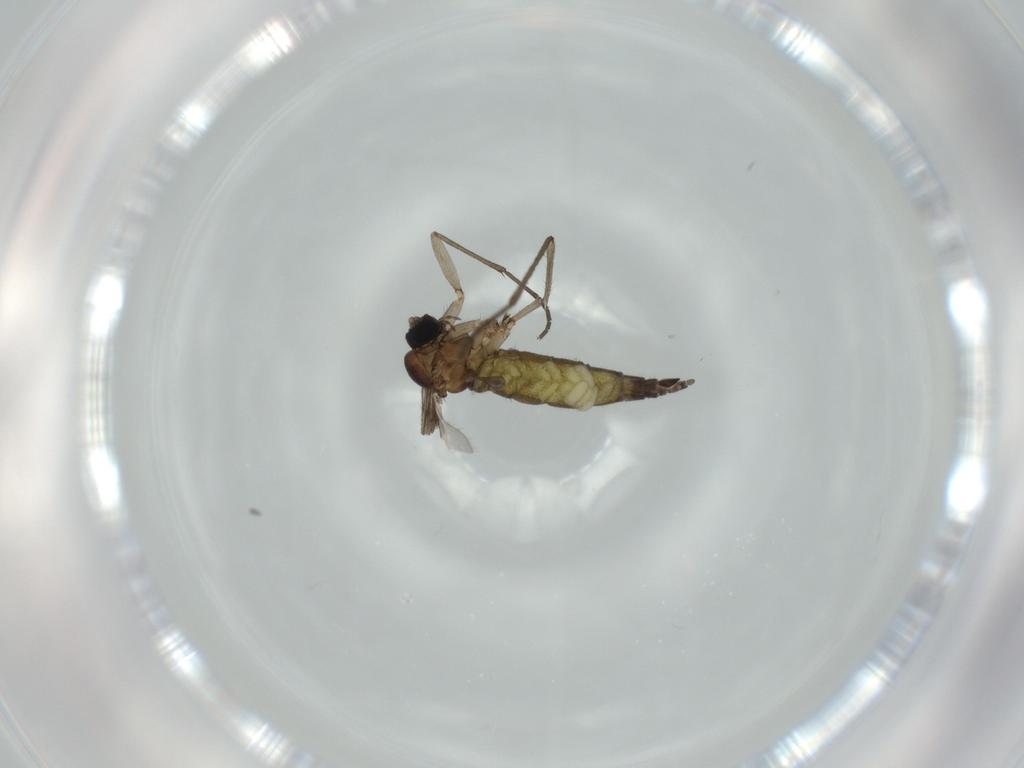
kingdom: Animalia
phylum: Arthropoda
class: Insecta
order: Diptera
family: Sciaridae
